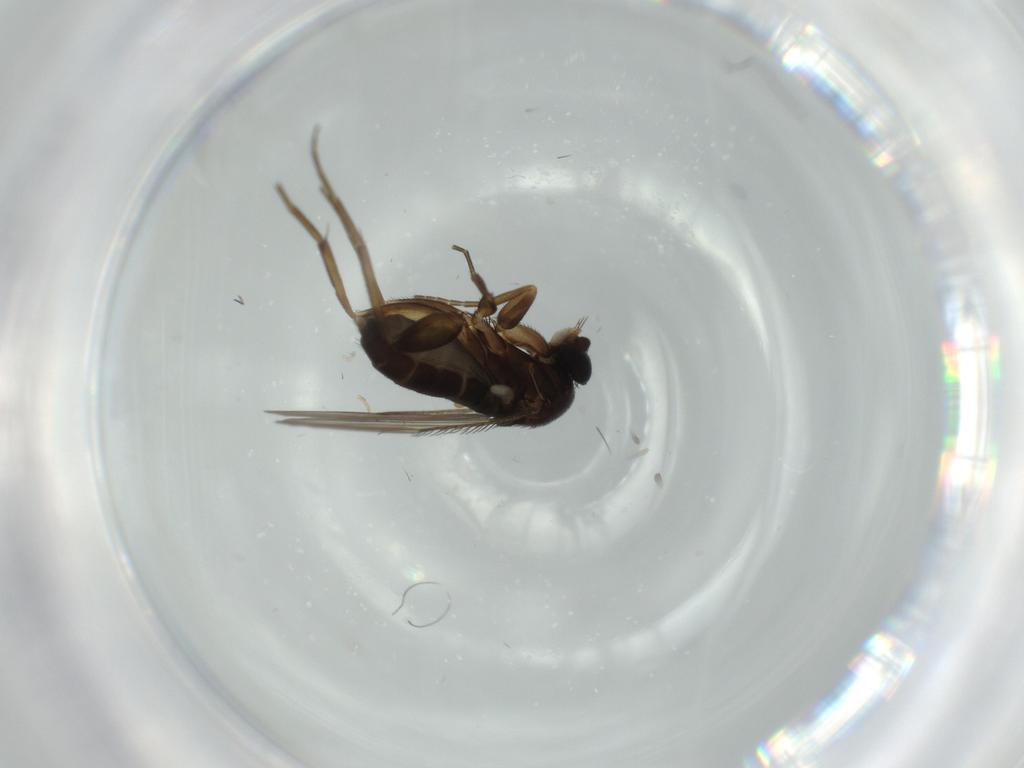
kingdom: Animalia
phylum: Arthropoda
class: Insecta
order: Diptera
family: Phoridae
